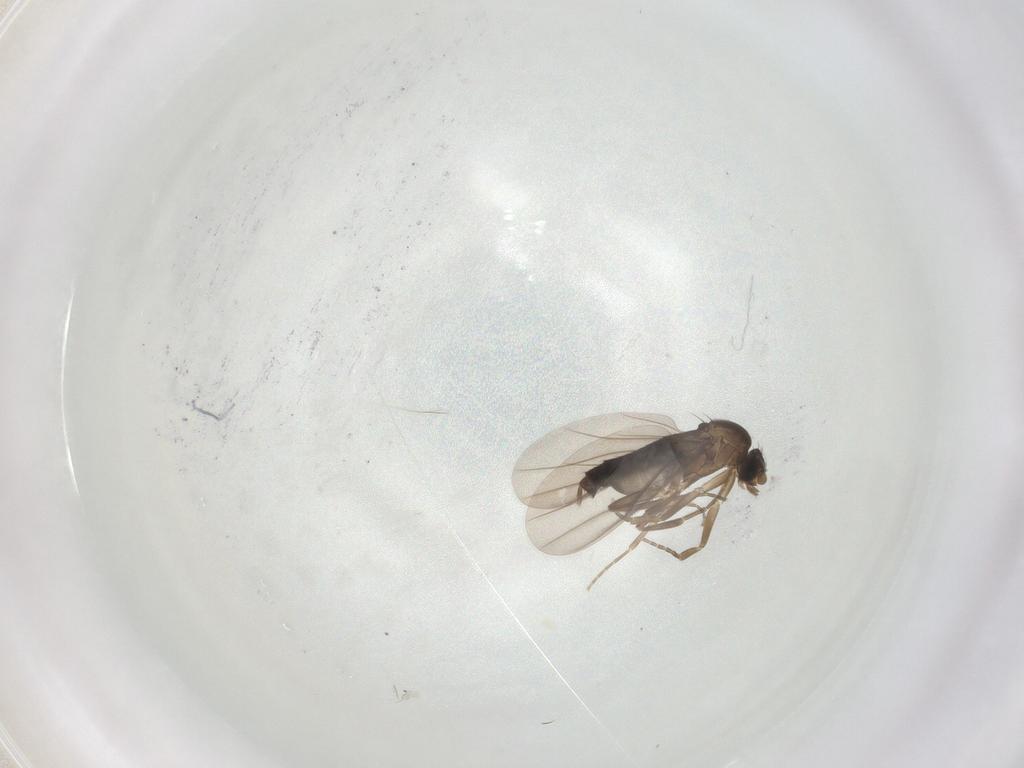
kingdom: Animalia
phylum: Arthropoda
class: Insecta
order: Diptera
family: Phoridae
